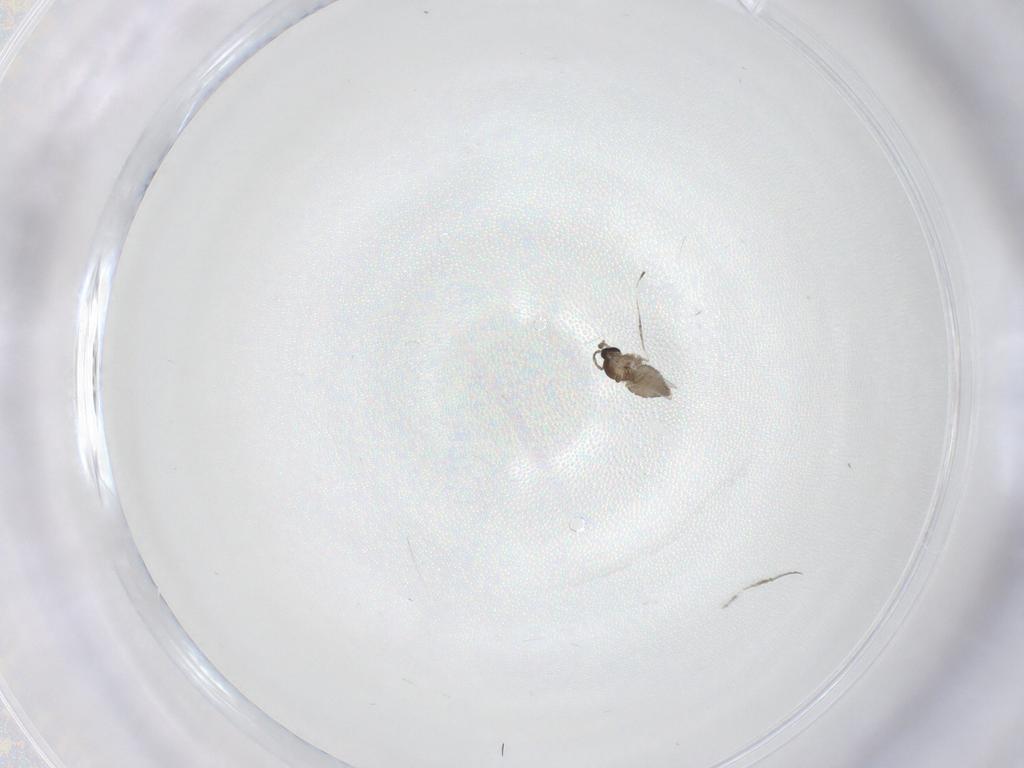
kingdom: Animalia
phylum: Arthropoda
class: Insecta
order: Diptera
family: Cecidomyiidae
